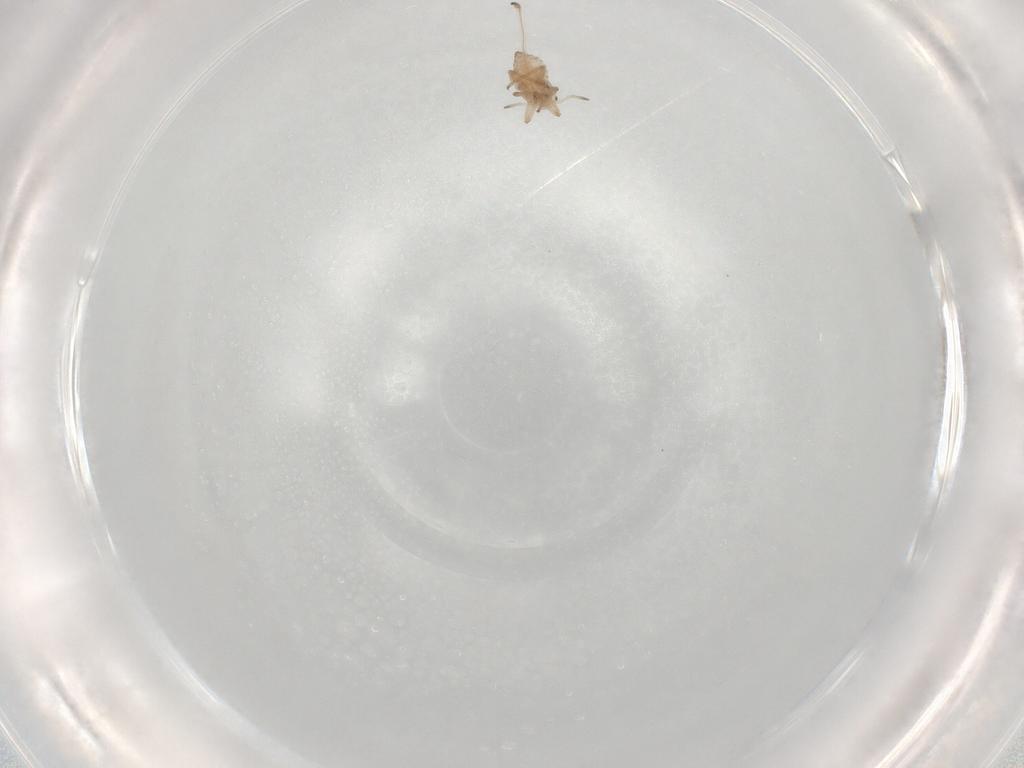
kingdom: Animalia
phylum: Arthropoda
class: Insecta
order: Hemiptera
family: Aphididae
